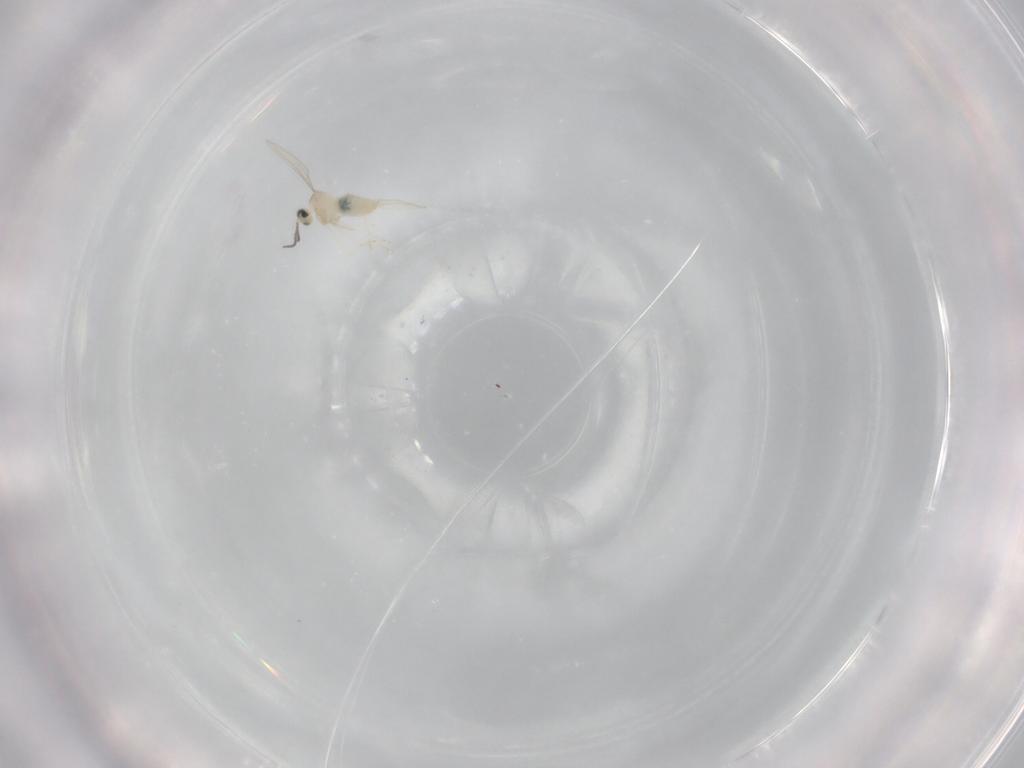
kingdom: Animalia
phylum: Arthropoda
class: Insecta
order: Diptera
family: Cecidomyiidae
